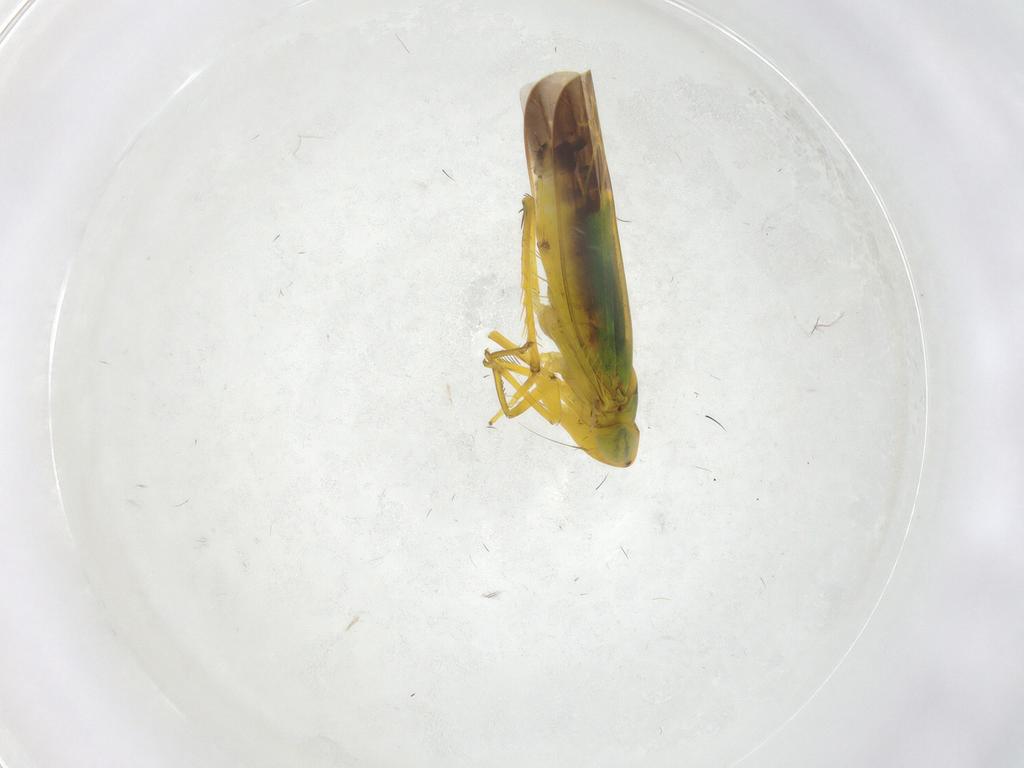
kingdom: Animalia
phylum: Arthropoda
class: Insecta
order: Hemiptera
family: Cicadellidae
